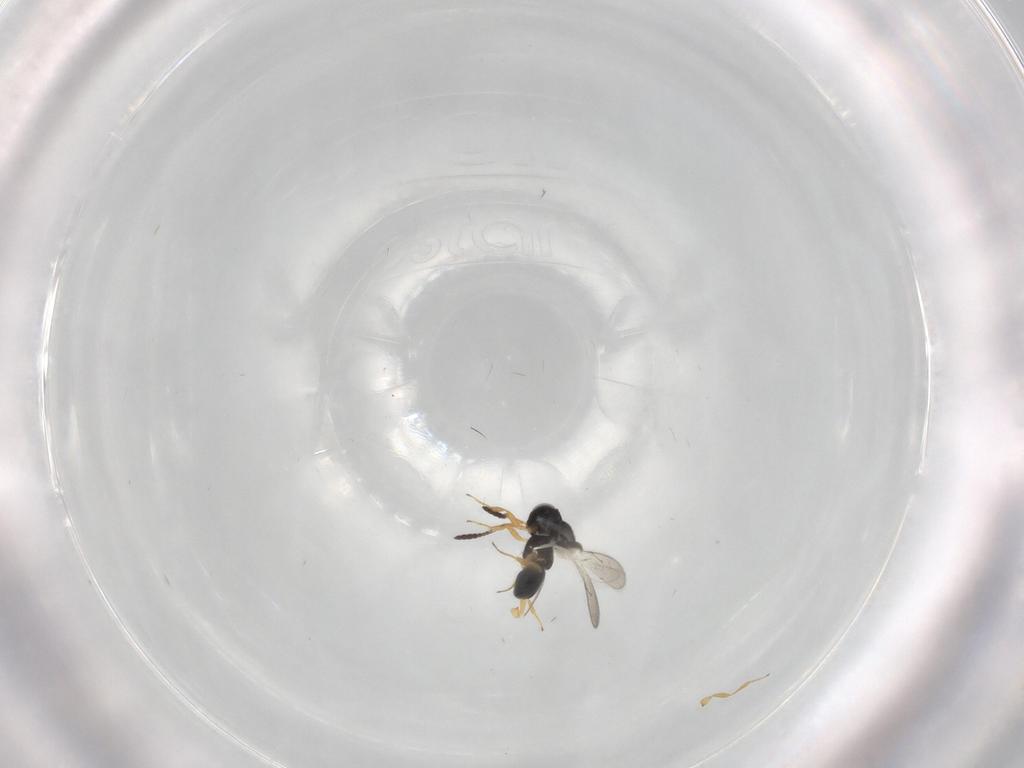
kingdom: Animalia
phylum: Arthropoda
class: Insecta
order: Hymenoptera
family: Scelionidae
